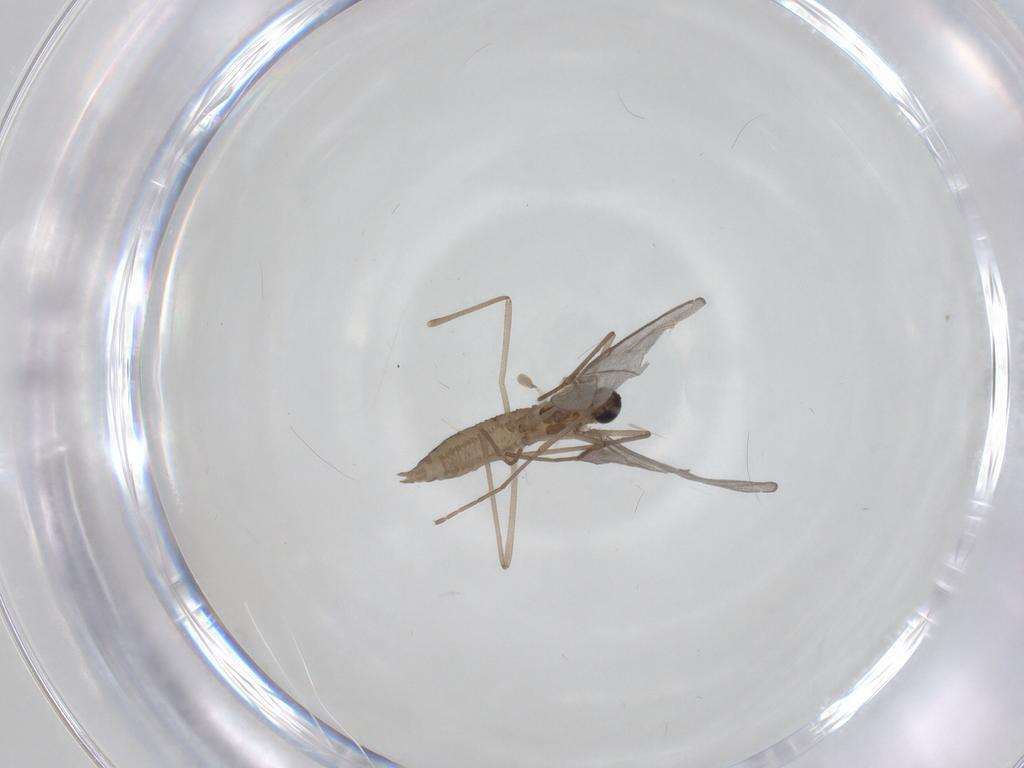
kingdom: Animalia
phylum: Arthropoda
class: Insecta
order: Diptera
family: Cecidomyiidae
